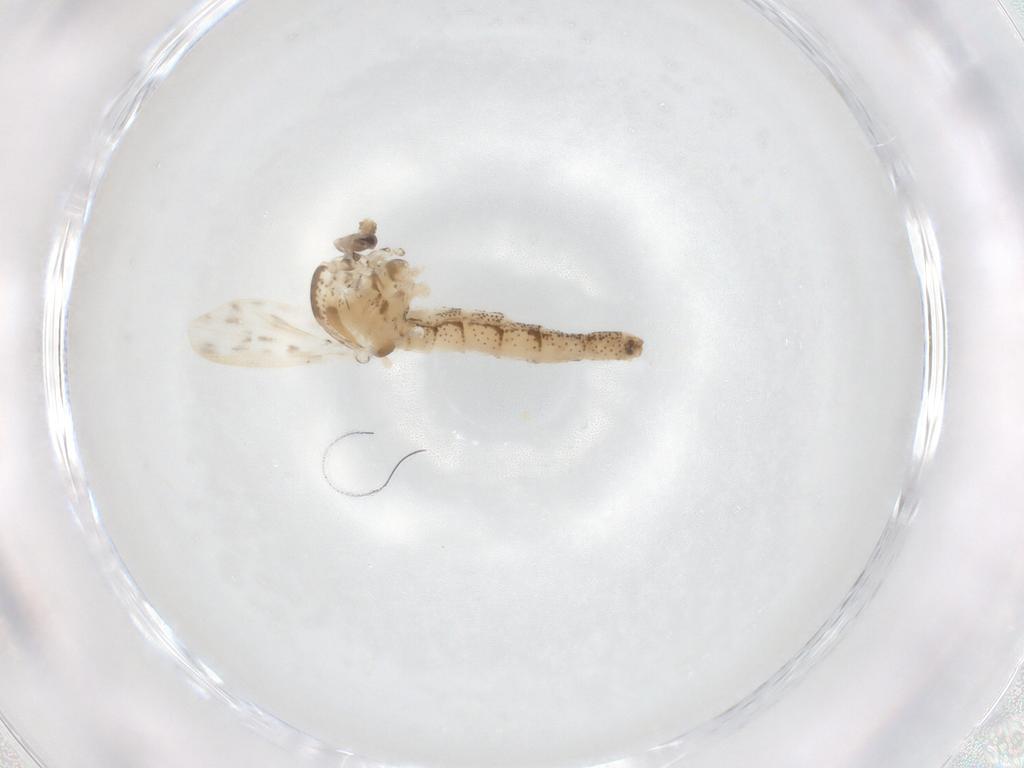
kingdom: Animalia
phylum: Arthropoda
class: Insecta
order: Diptera
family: Chaoboridae
